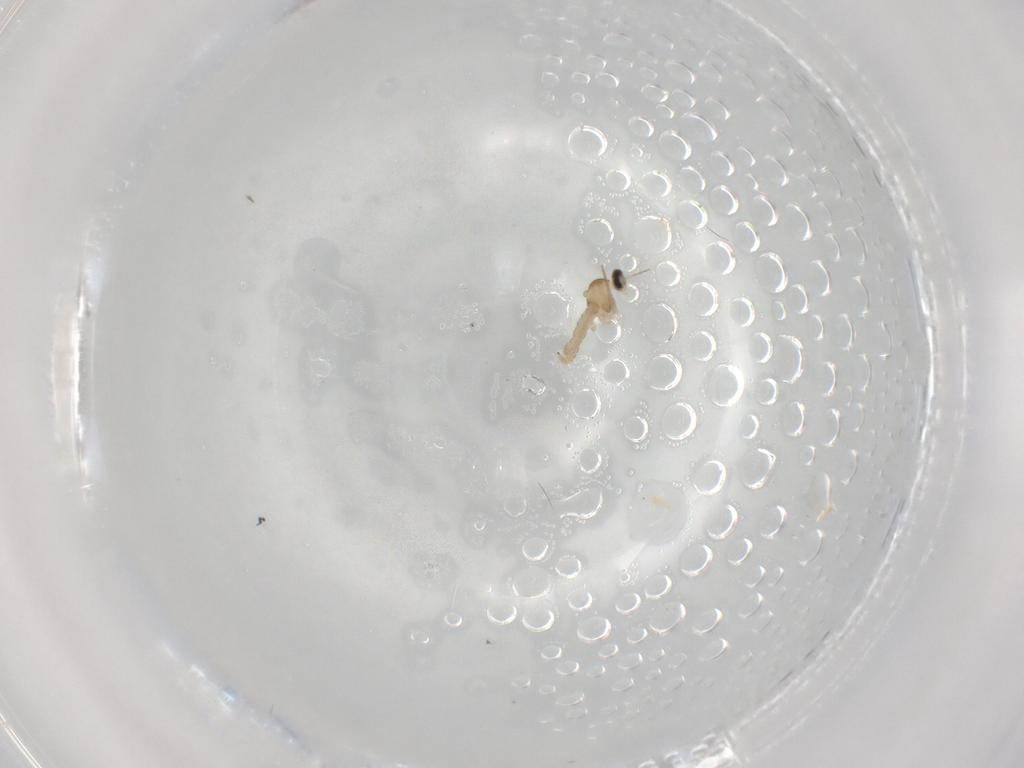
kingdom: Animalia
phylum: Arthropoda
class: Insecta
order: Diptera
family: Cecidomyiidae
